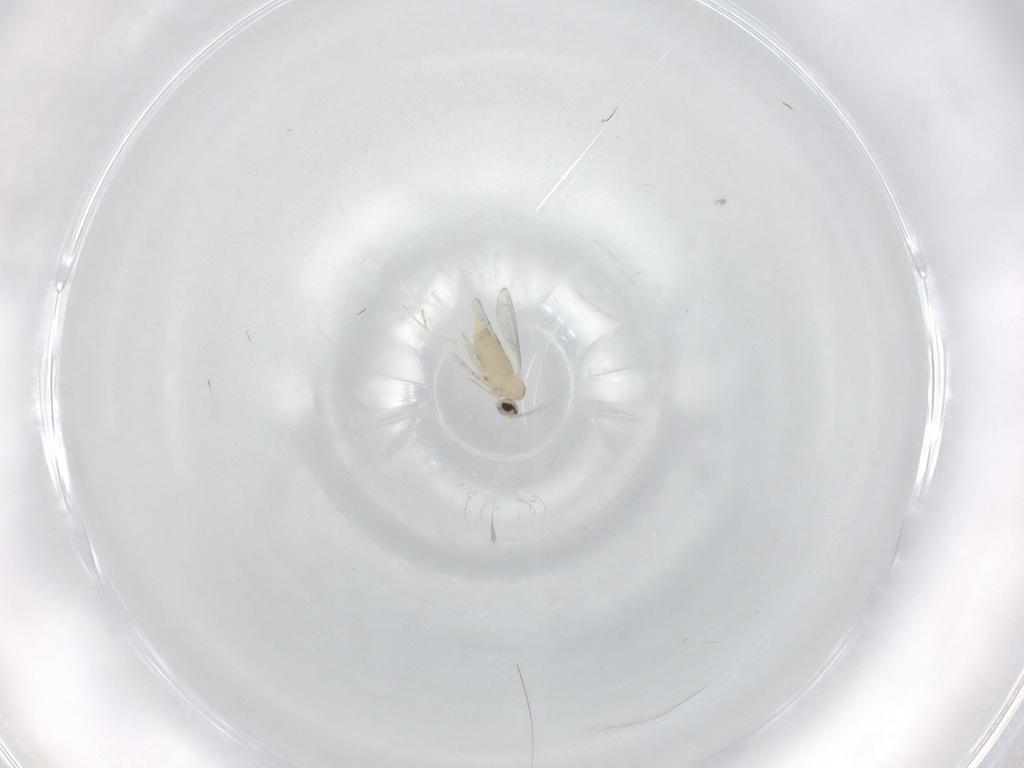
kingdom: Animalia
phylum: Arthropoda
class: Insecta
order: Diptera
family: Cecidomyiidae
